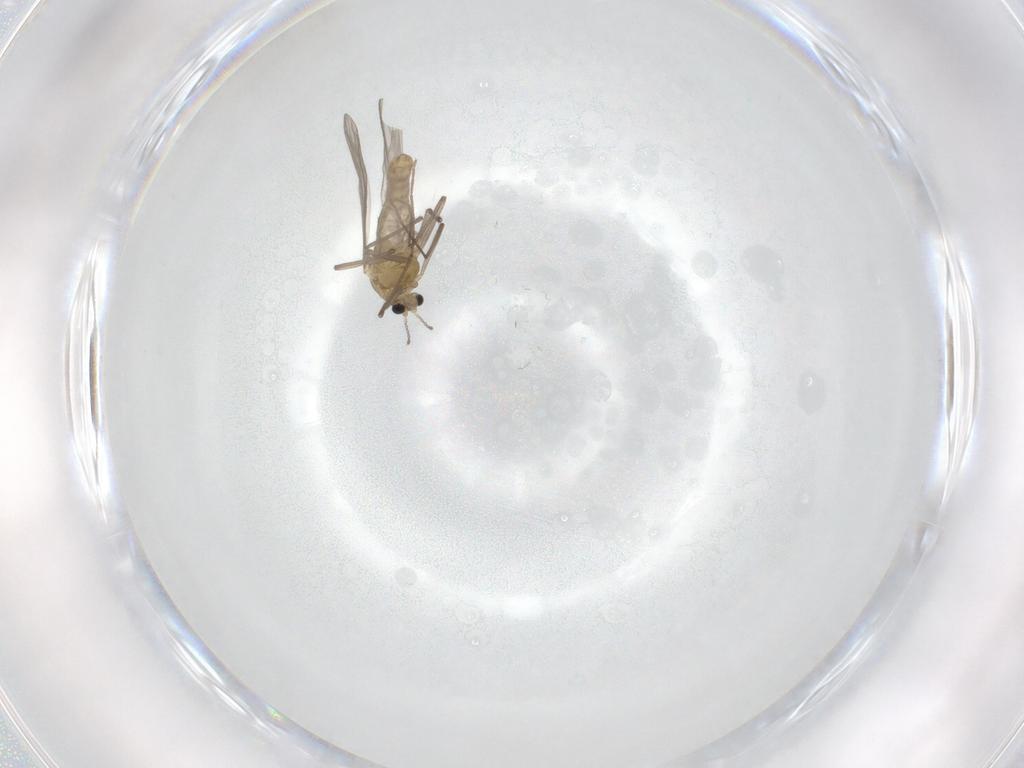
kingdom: Animalia
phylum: Arthropoda
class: Insecta
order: Diptera
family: Chironomidae
